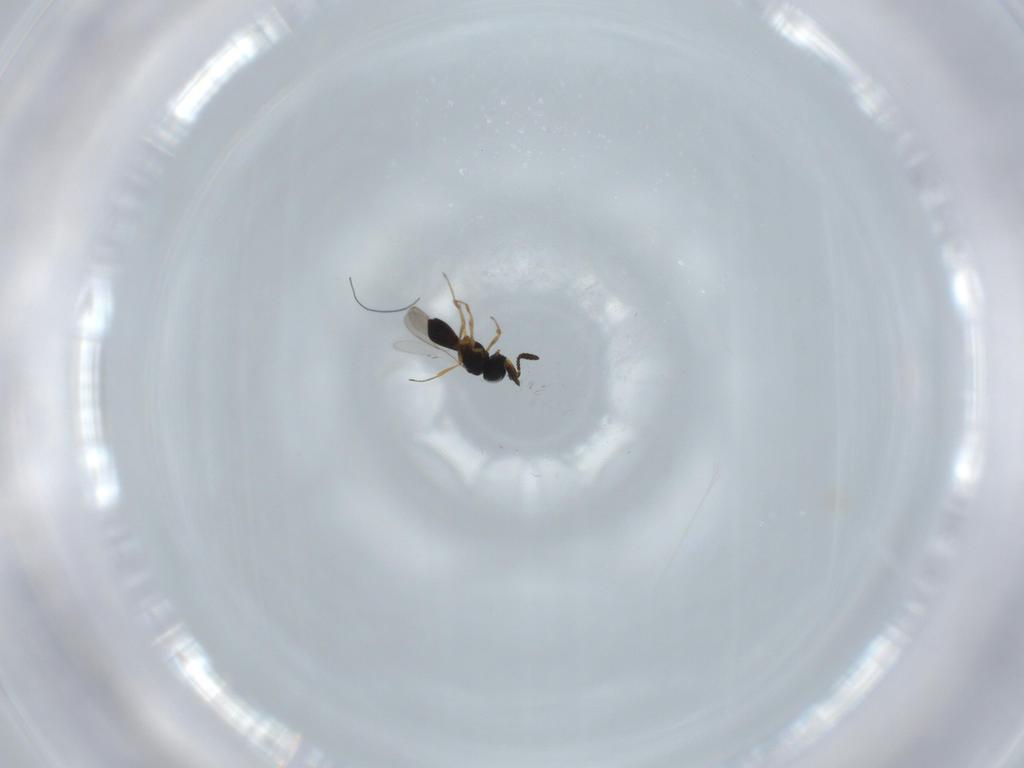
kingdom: Animalia
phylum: Arthropoda
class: Insecta
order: Hymenoptera
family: Scelionidae
